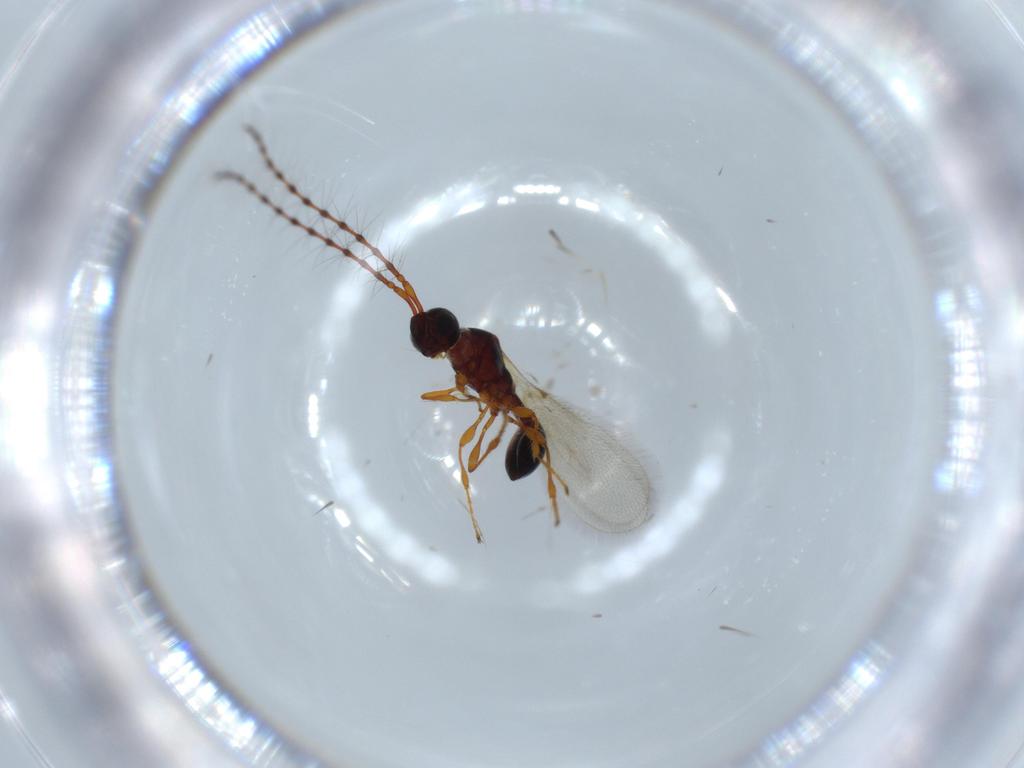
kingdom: Animalia
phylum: Arthropoda
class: Insecta
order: Hymenoptera
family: Diapriidae
